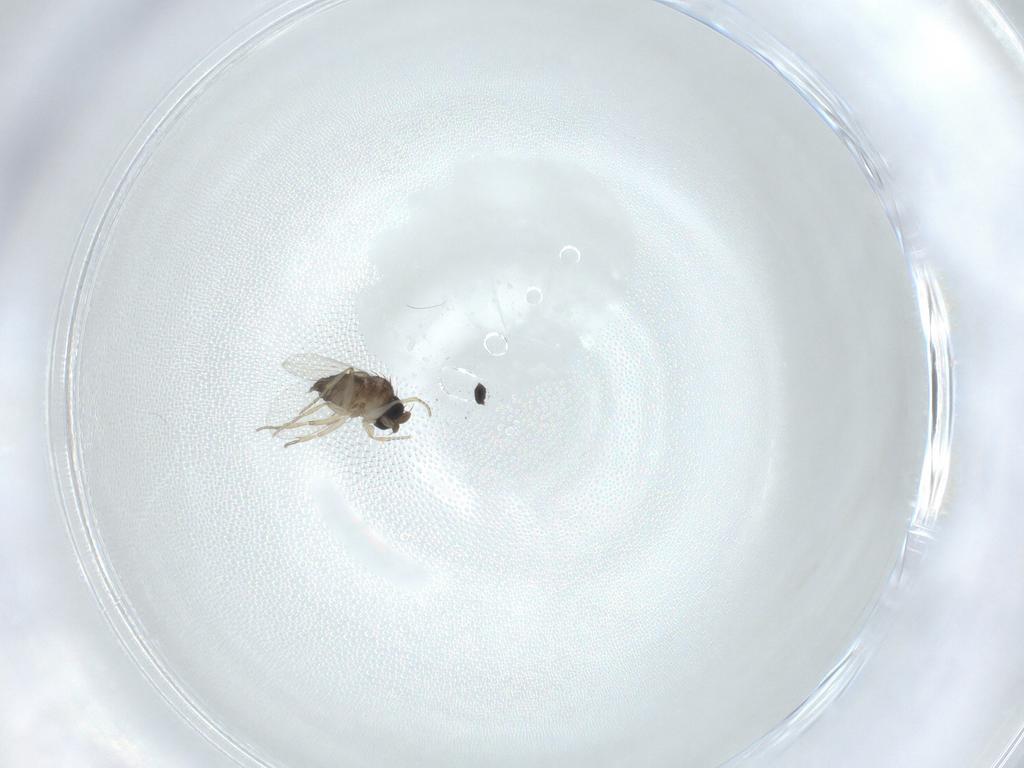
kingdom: Animalia
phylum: Arthropoda
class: Insecta
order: Diptera
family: Phoridae
